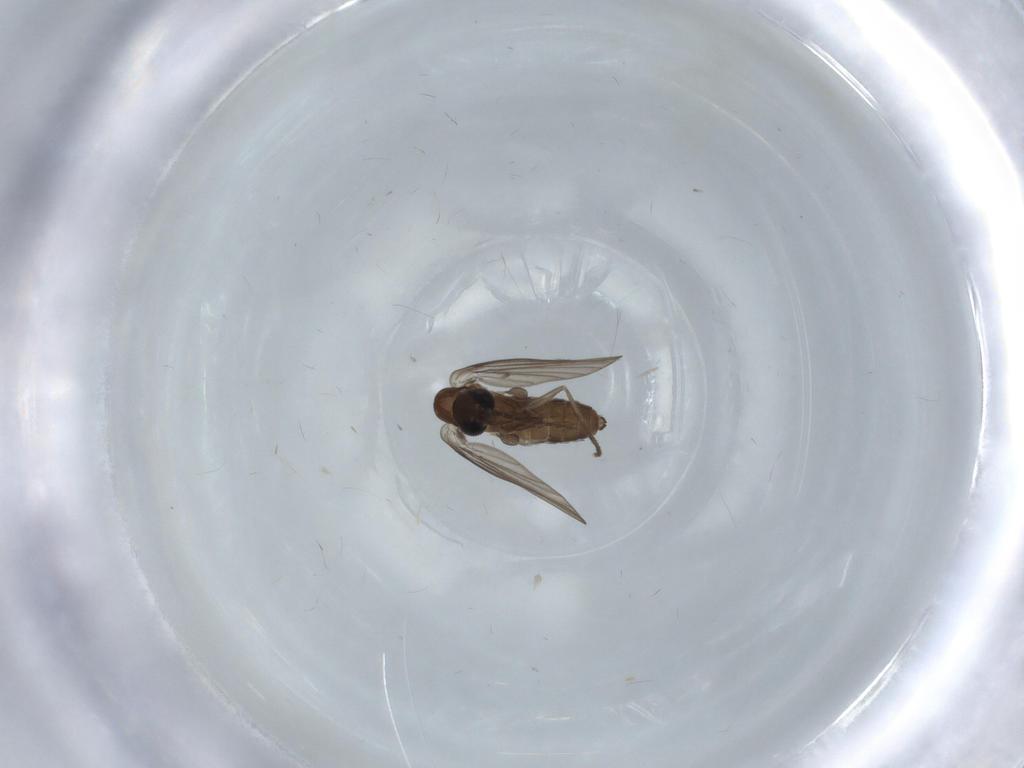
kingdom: Animalia
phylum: Arthropoda
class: Insecta
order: Diptera
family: Psychodidae
